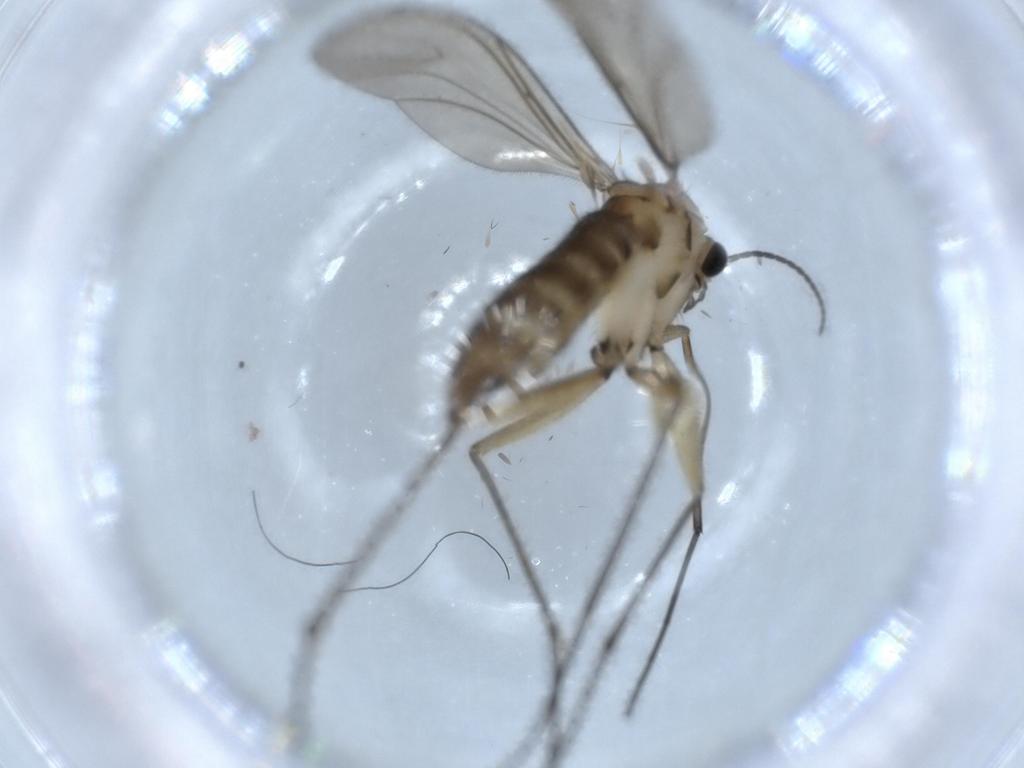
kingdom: Animalia
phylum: Arthropoda
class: Insecta
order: Diptera
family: Sciaridae
